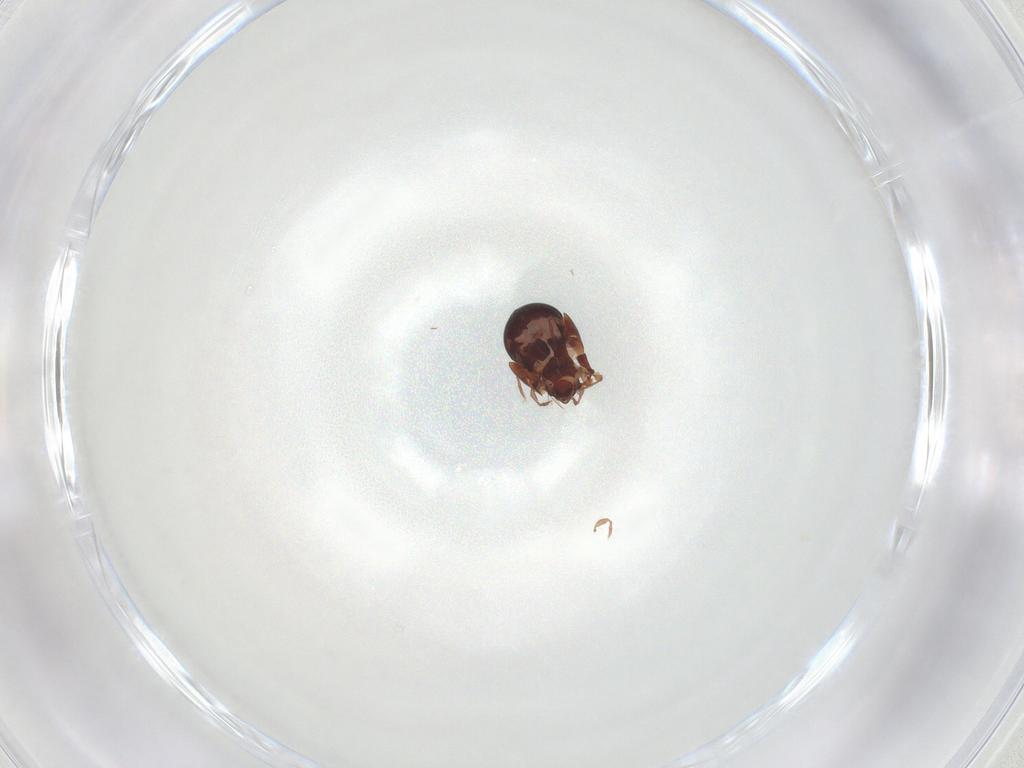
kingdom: Animalia
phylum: Arthropoda
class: Arachnida
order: Sarcoptiformes
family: Galumnidae
